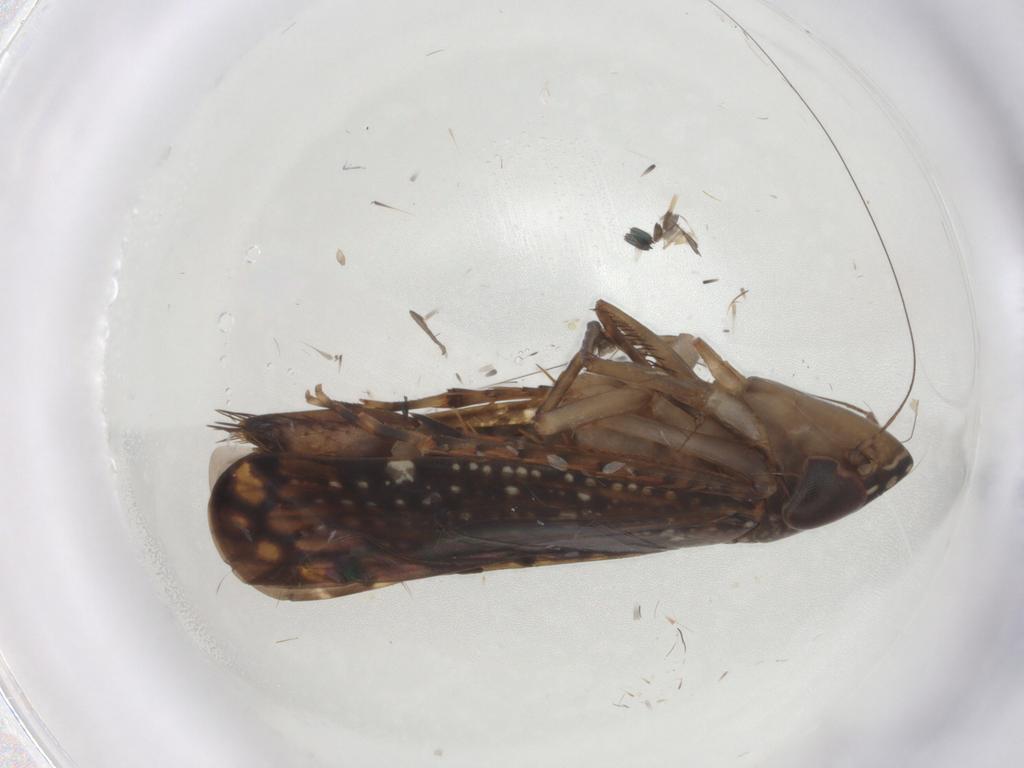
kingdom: Animalia
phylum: Arthropoda
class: Insecta
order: Hemiptera
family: Cicadellidae
